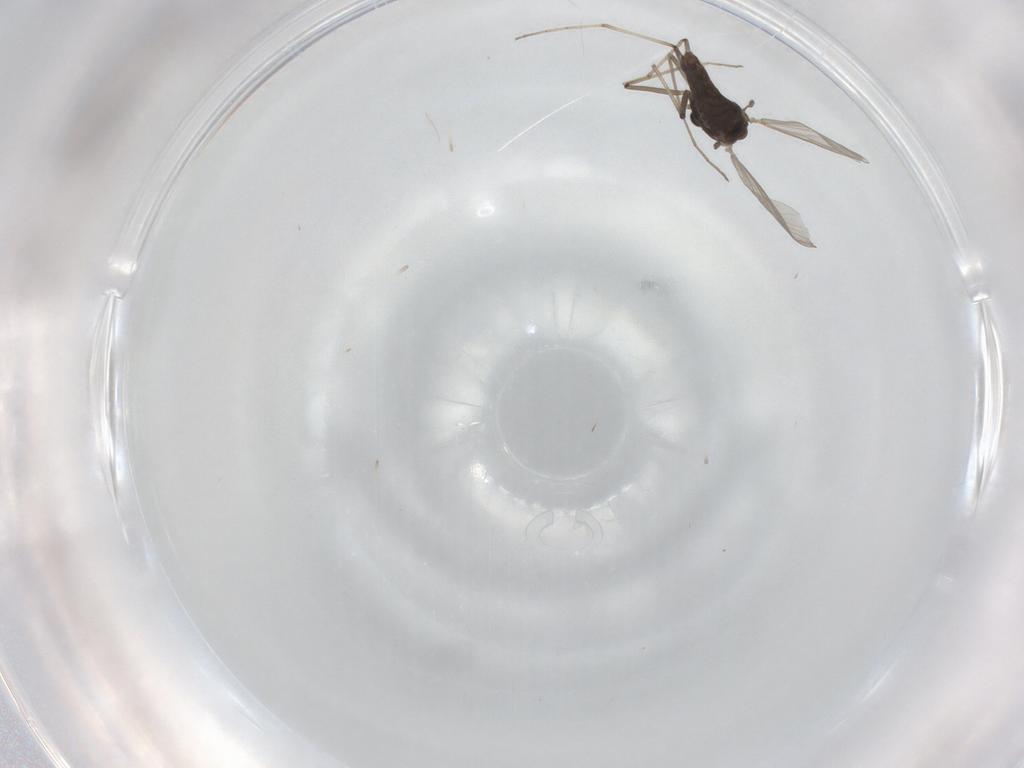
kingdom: Animalia
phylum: Arthropoda
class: Insecta
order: Diptera
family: Chironomidae
